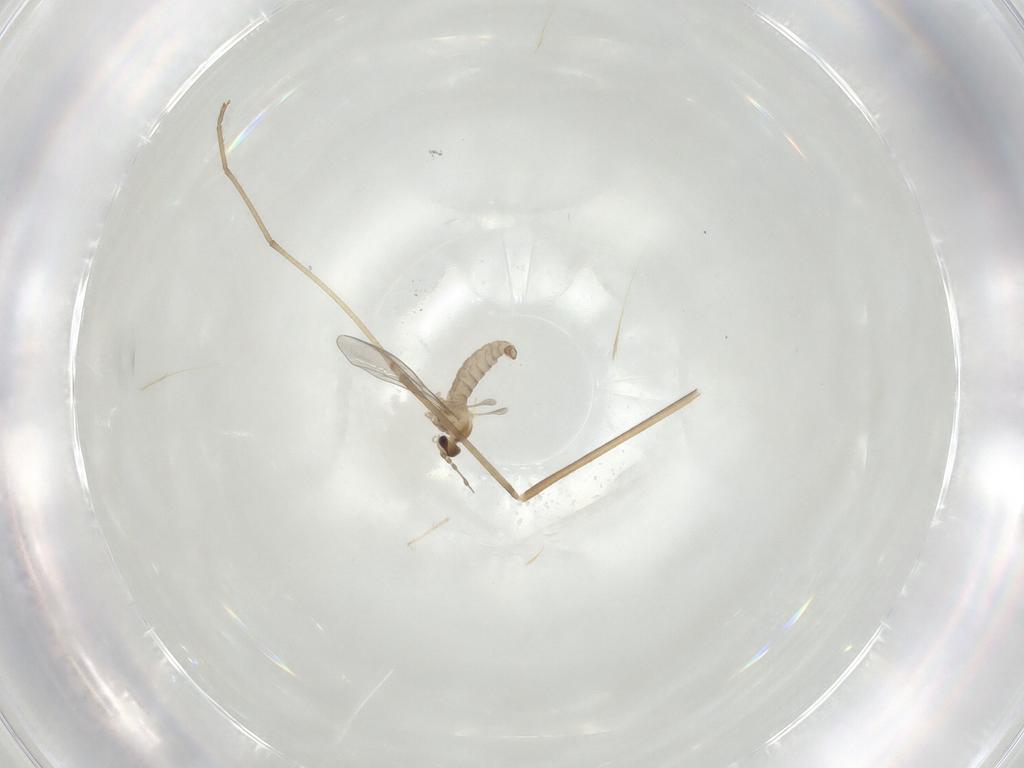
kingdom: Animalia
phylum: Arthropoda
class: Insecta
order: Diptera
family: Cecidomyiidae
